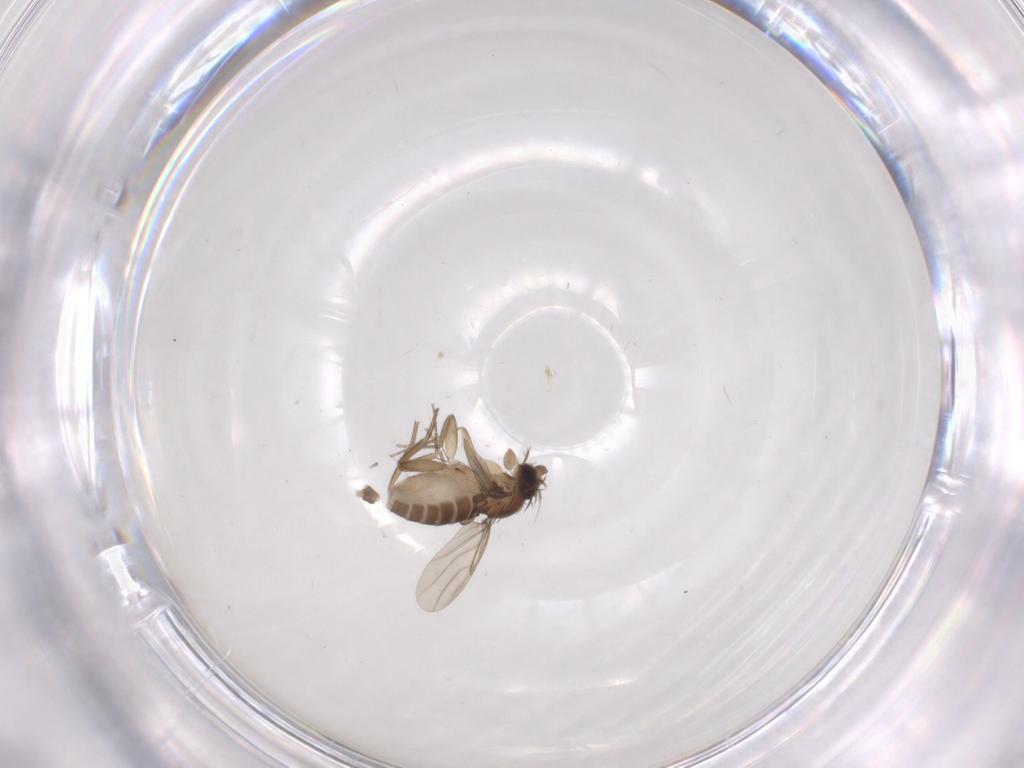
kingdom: Animalia
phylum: Arthropoda
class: Insecta
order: Diptera
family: Phoridae
